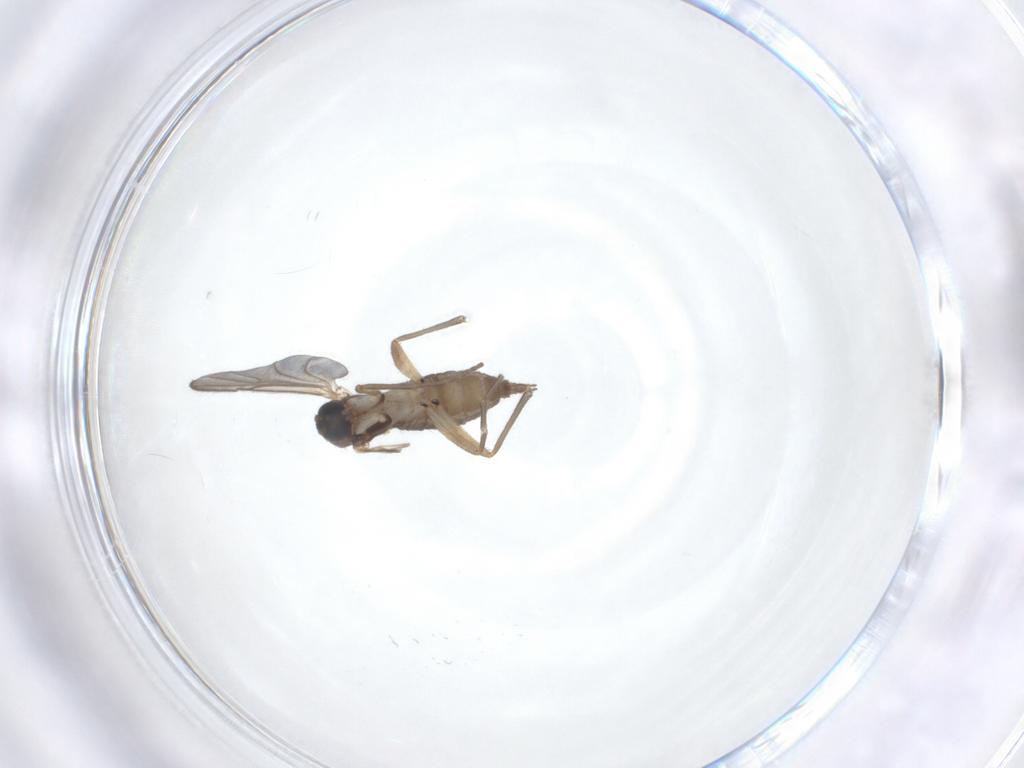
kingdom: Animalia
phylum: Arthropoda
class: Insecta
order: Diptera
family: Sciaridae
